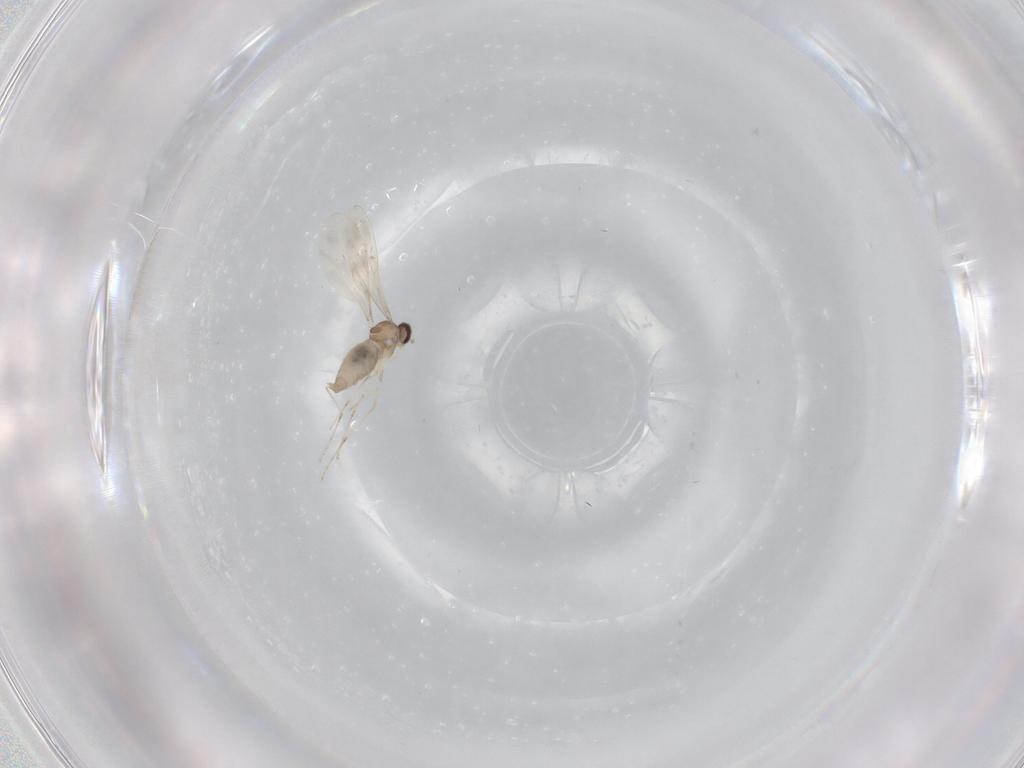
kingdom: Animalia
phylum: Arthropoda
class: Insecta
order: Diptera
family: Cecidomyiidae
